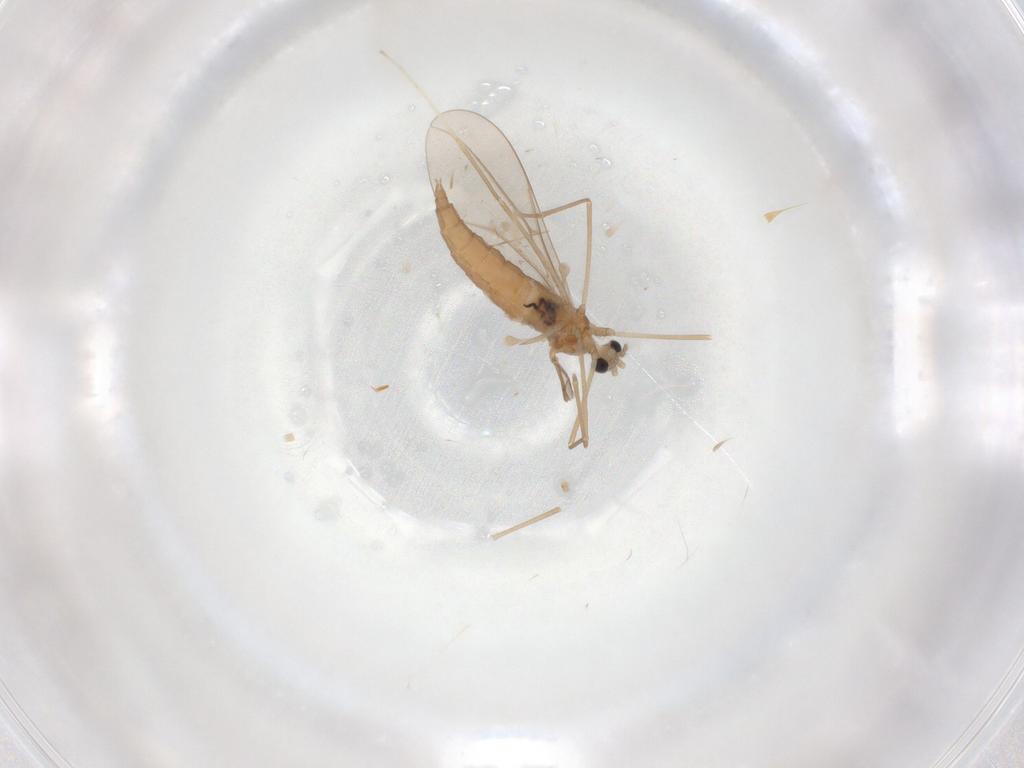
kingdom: Animalia
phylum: Arthropoda
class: Insecta
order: Diptera
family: Cecidomyiidae
